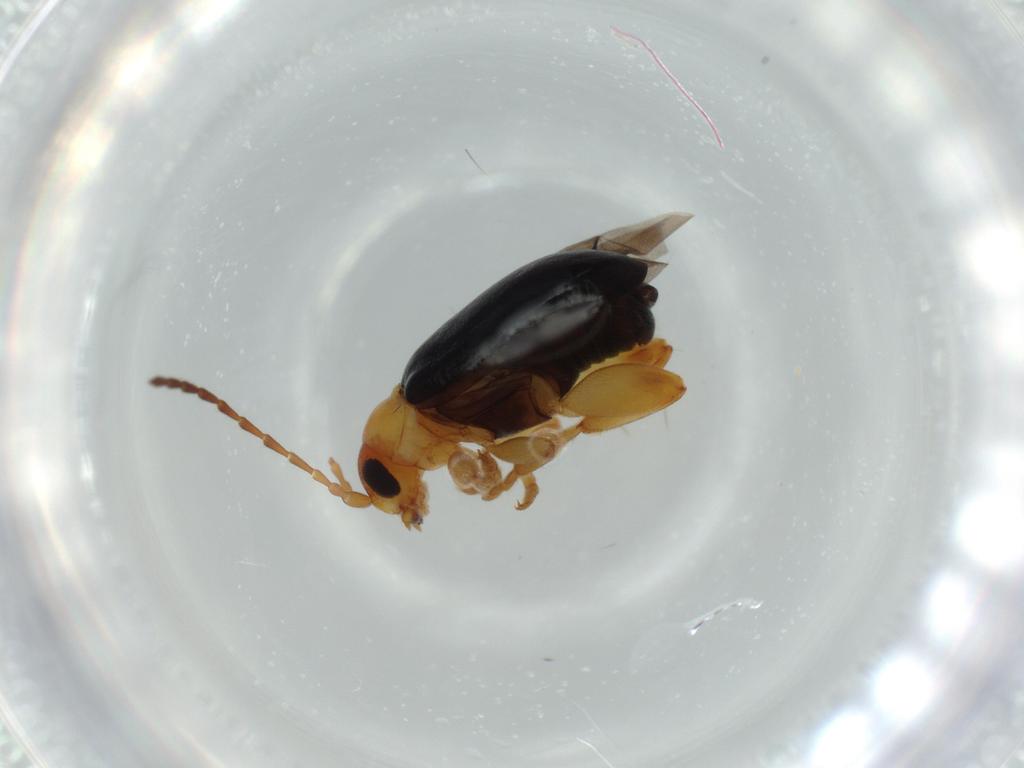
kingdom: Animalia
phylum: Arthropoda
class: Insecta
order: Coleoptera
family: Chrysomelidae
